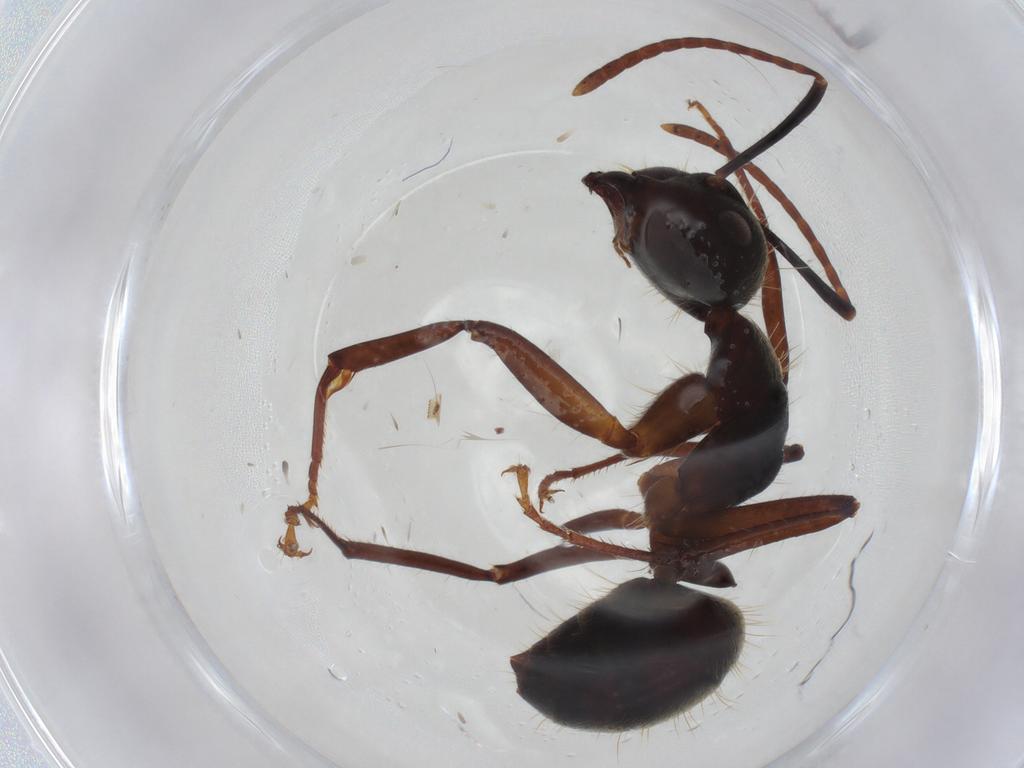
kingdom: Animalia
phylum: Arthropoda
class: Insecta
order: Hymenoptera
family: Formicidae
